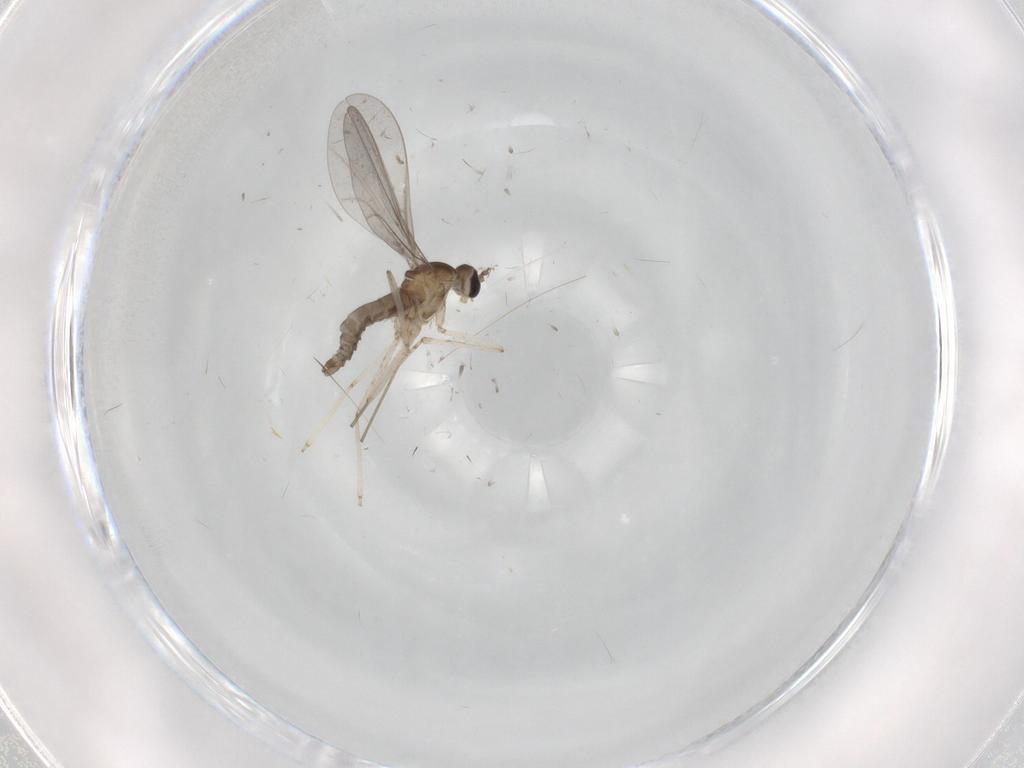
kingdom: Animalia
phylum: Arthropoda
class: Insecta
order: Diptera
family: Cecidomyiidae
